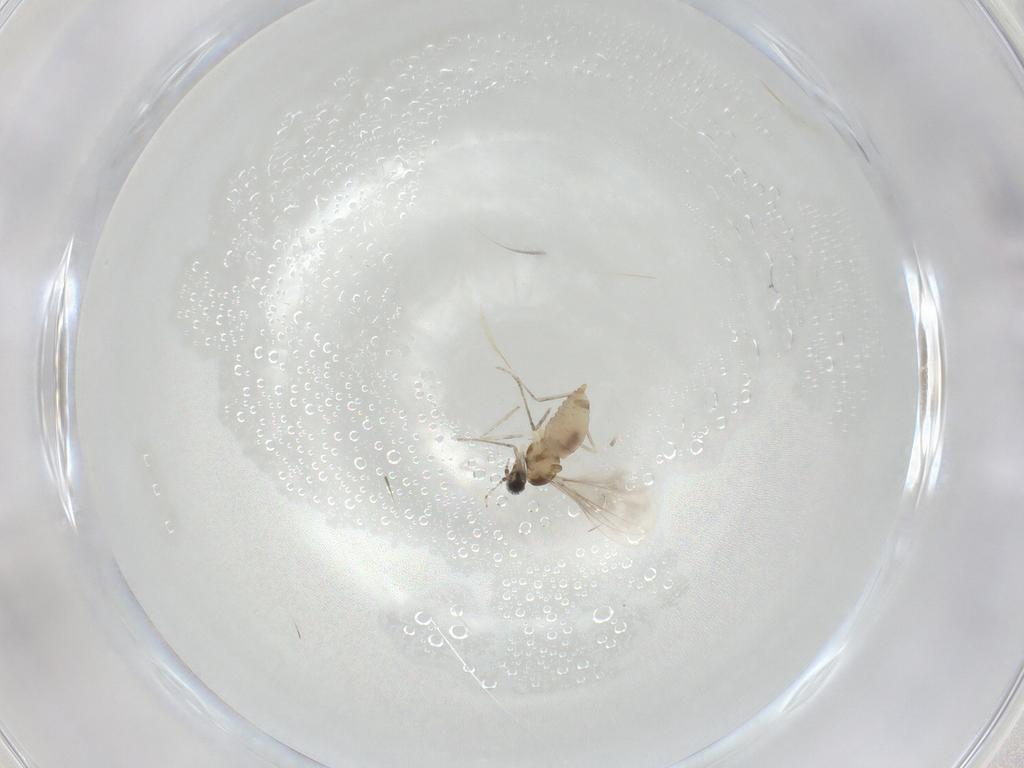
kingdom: Animalia
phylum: Arthropoda
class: Insecta
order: Diptera
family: Cecidomyiidae
